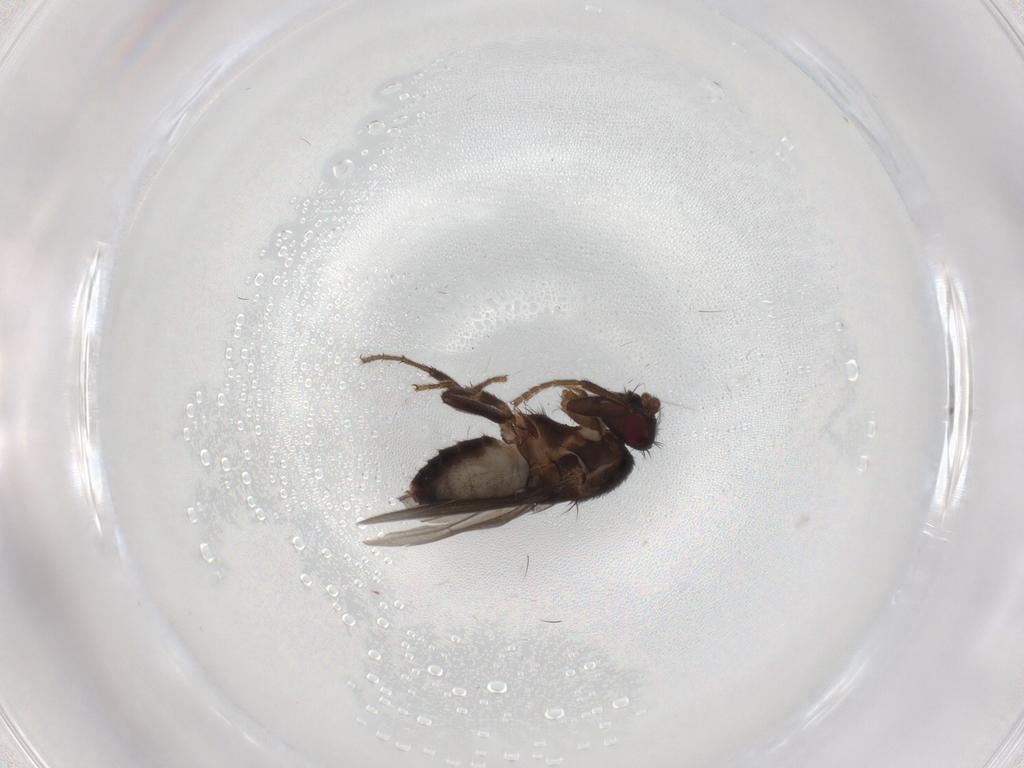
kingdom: Animalia
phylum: Arthropoda
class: Insecta
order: Diptera
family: Sphaeroceridae
